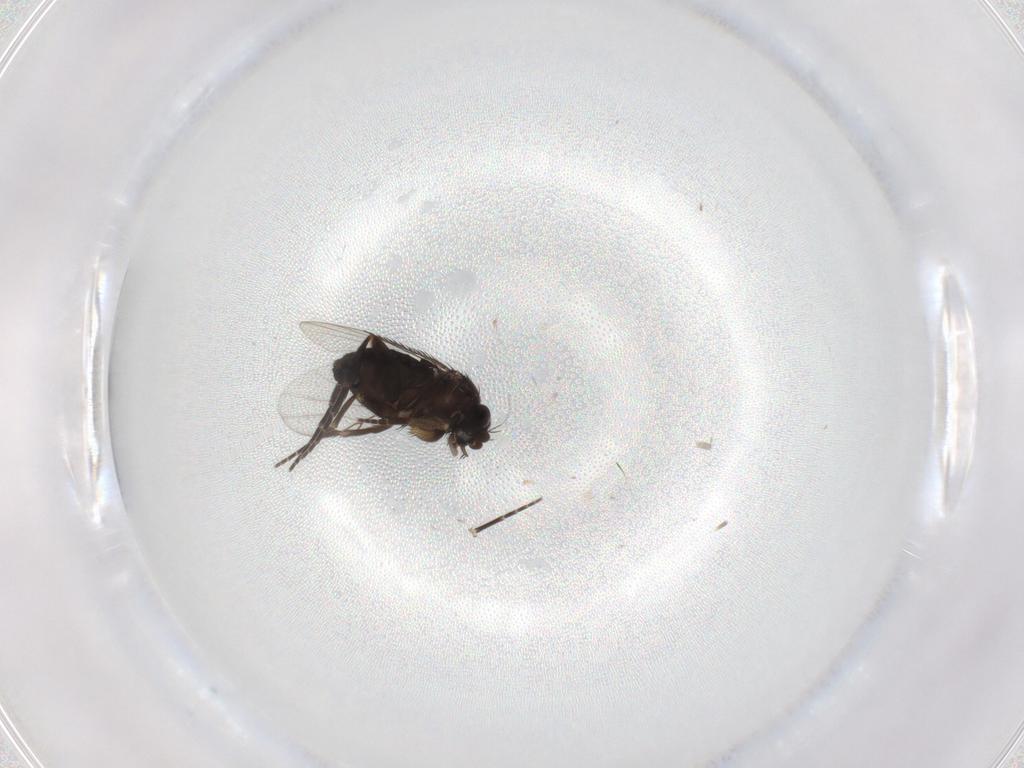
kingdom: Animalia
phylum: Arthropoda
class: Insecta
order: Diptera
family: Phoridae
